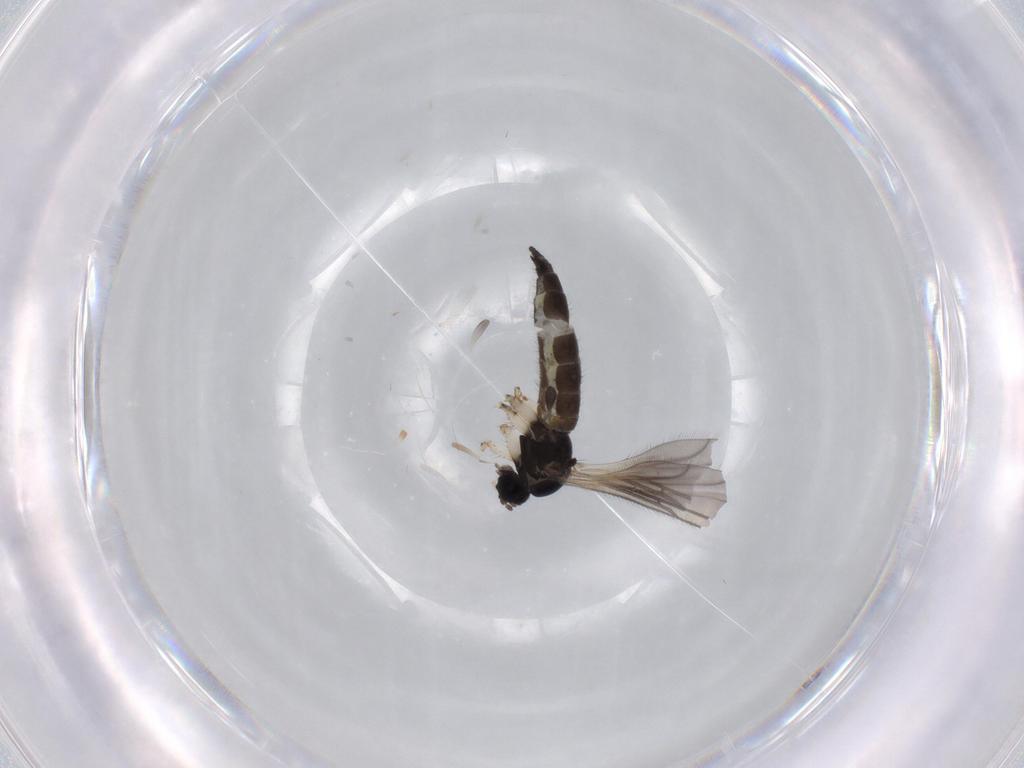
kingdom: Animalia
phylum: Arthropoda
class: Insecta
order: Diptera
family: Sciaridae
